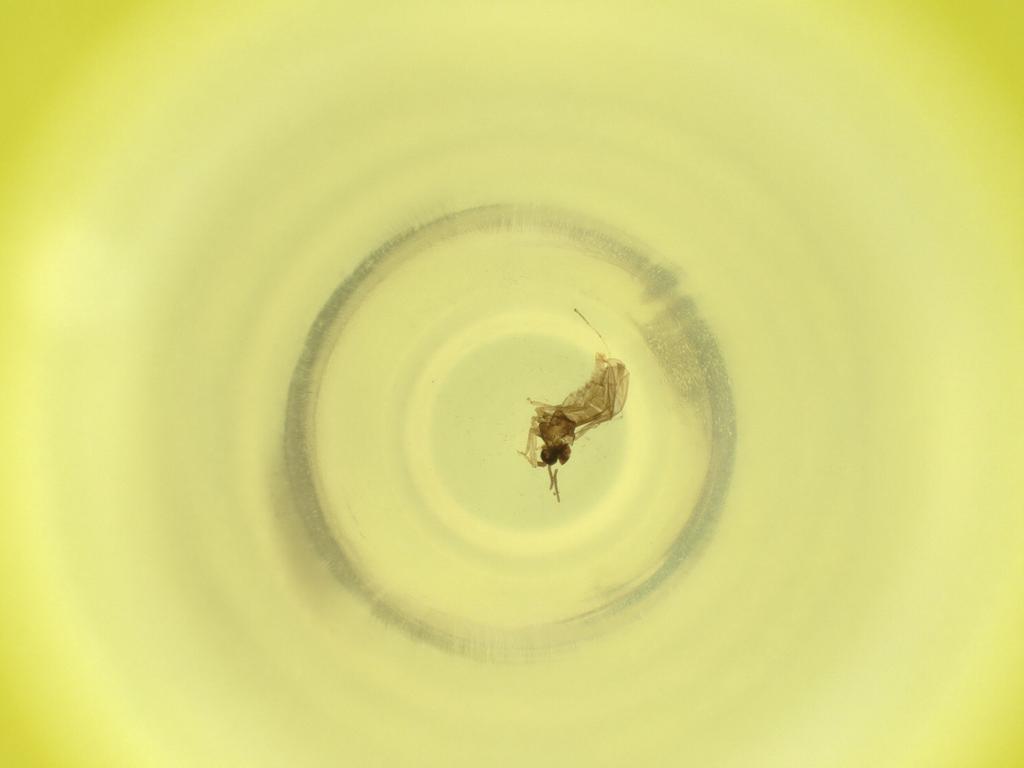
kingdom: Animalia
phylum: Arthropoda
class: Insecta
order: Diptera
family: Cecidomyiidae
